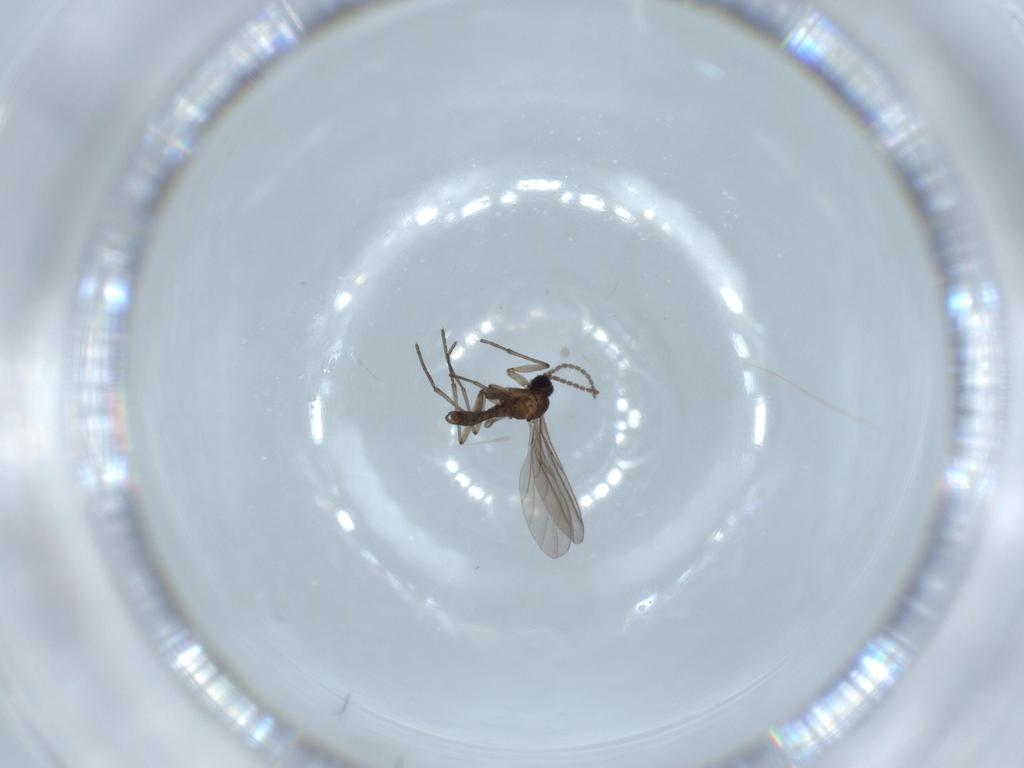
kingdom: Animalia
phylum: Arthropoda
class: Insecta
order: Diptera
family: Sciaridae
